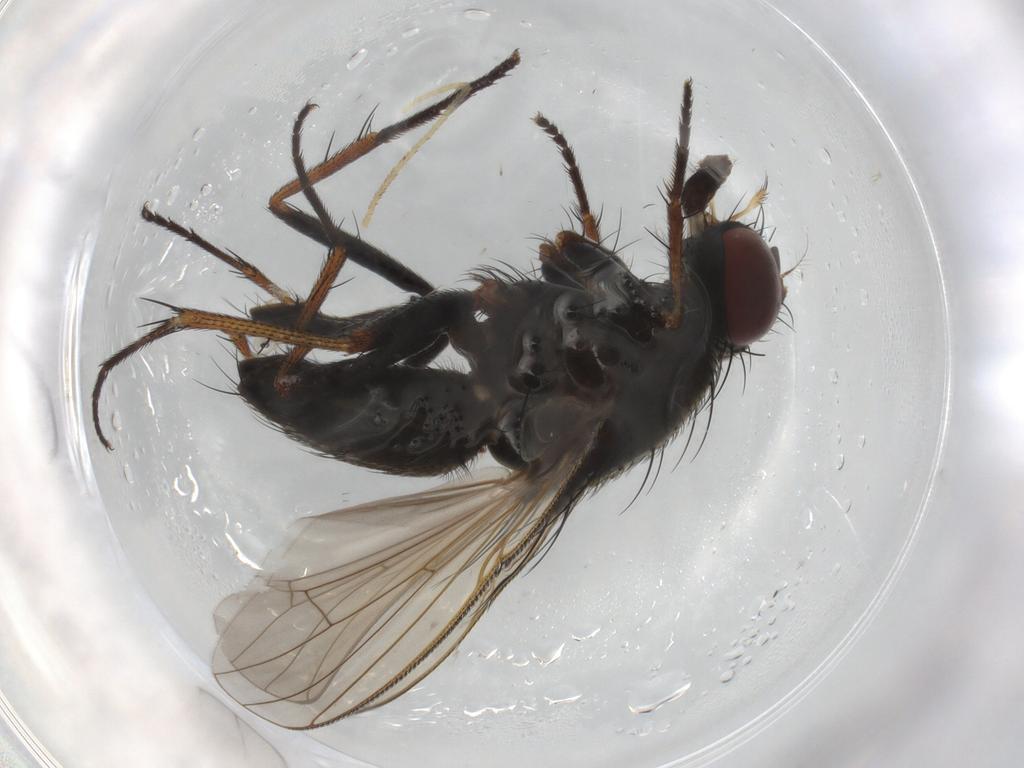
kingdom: Animalia
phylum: Arthropoda
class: Insecta
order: Diptera
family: Muscidae
